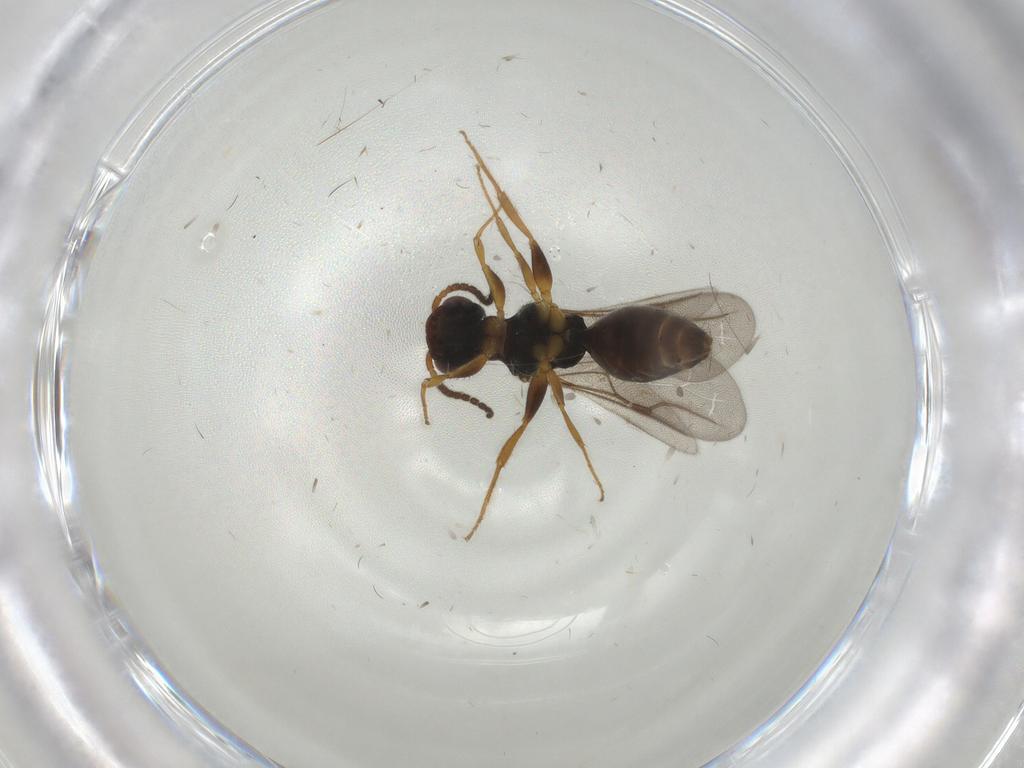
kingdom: Animalia
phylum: Arthropoda
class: Insecta
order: Hymenoptera
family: Bethylidae
